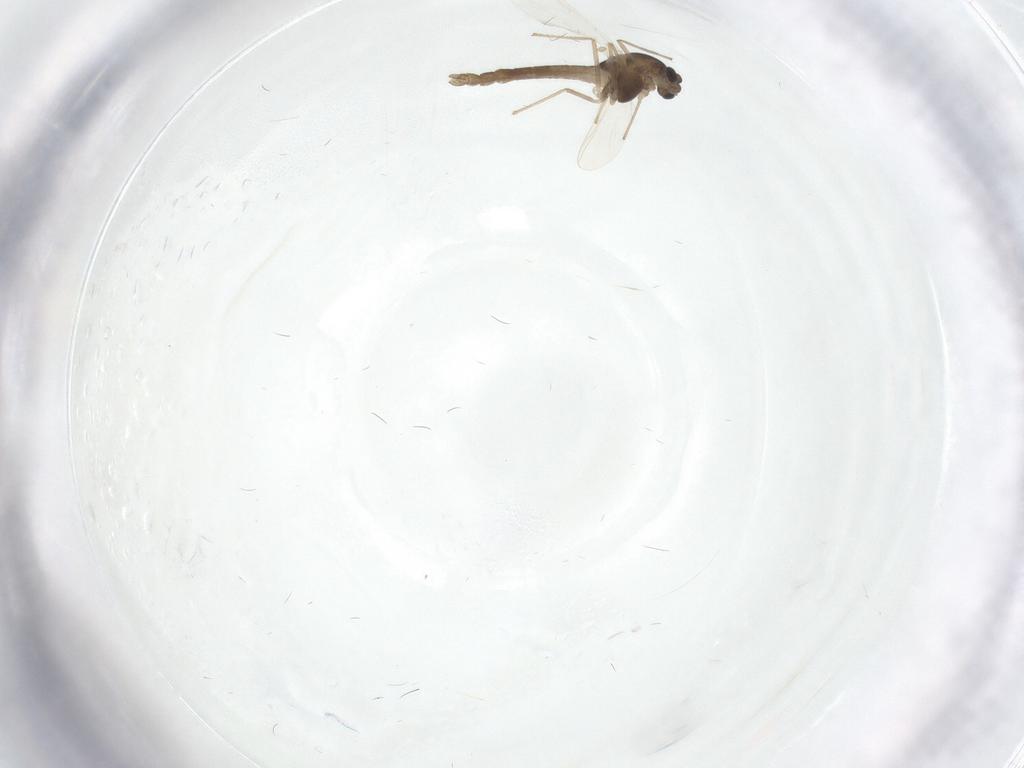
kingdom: Animalia
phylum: Arthropoda
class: Insecta
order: Diptera
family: Chironomidae
